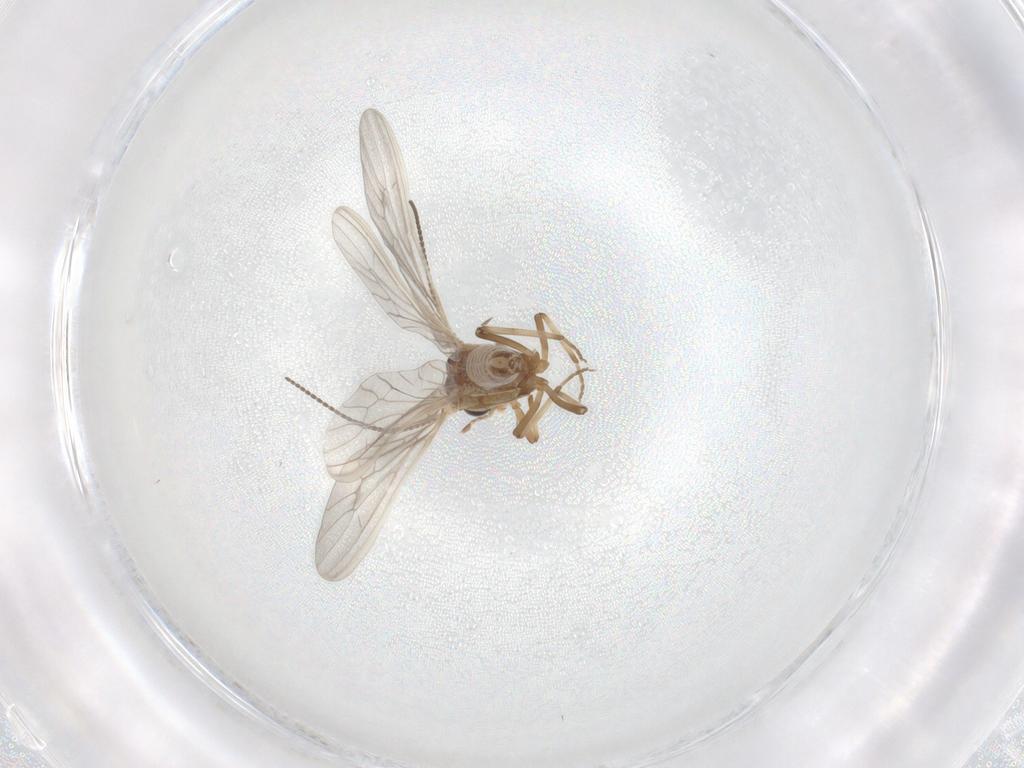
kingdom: Animalia
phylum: Arthropoda
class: Insecta
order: Neuroptera
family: Coniopterygidae
